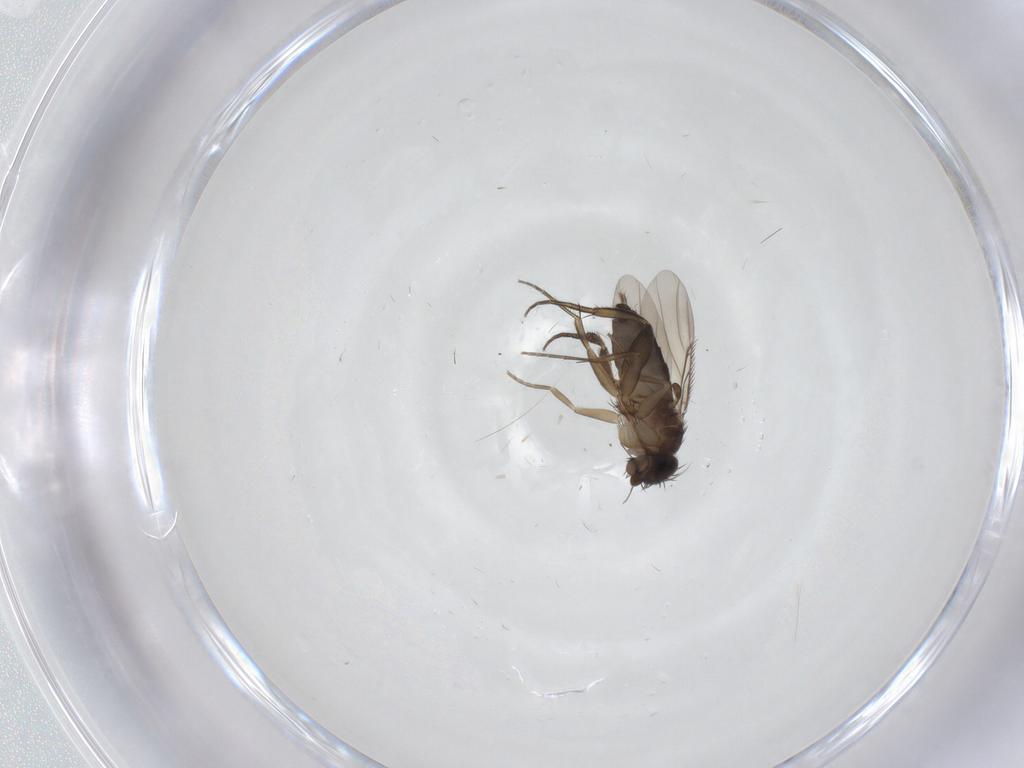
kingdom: Animalia
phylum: Arthropoda
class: Insecta
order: Diptera
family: Phoridae
